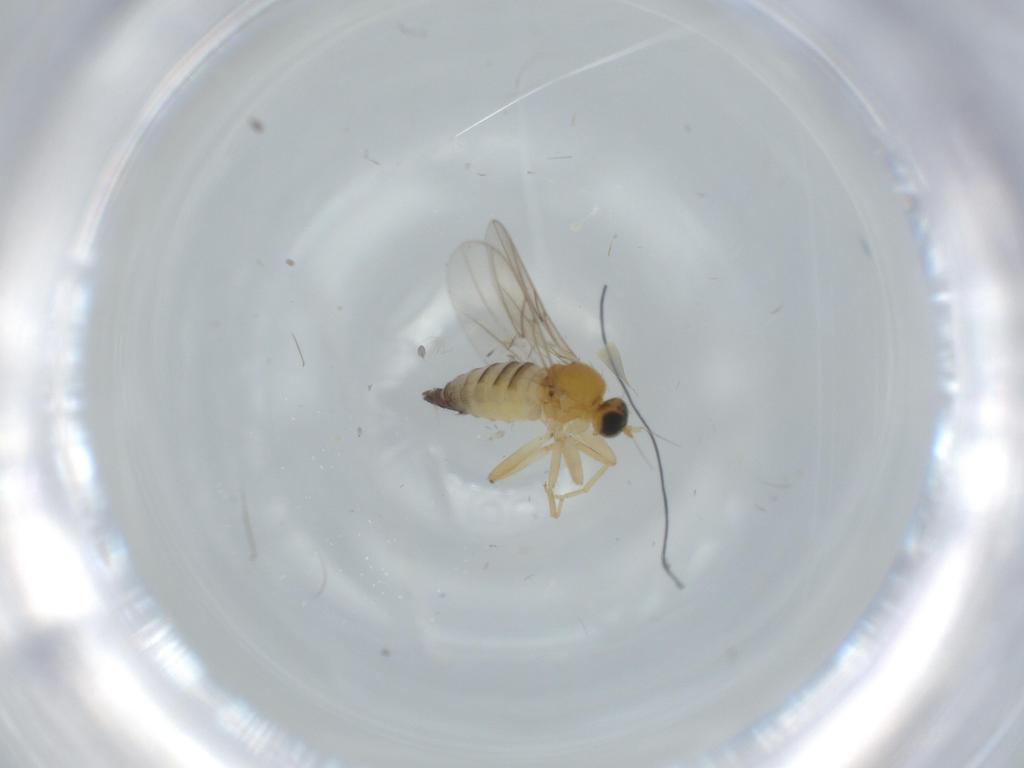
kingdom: Animalia
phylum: Arthropoda
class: Insecta
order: Diptera
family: Hybotidae
